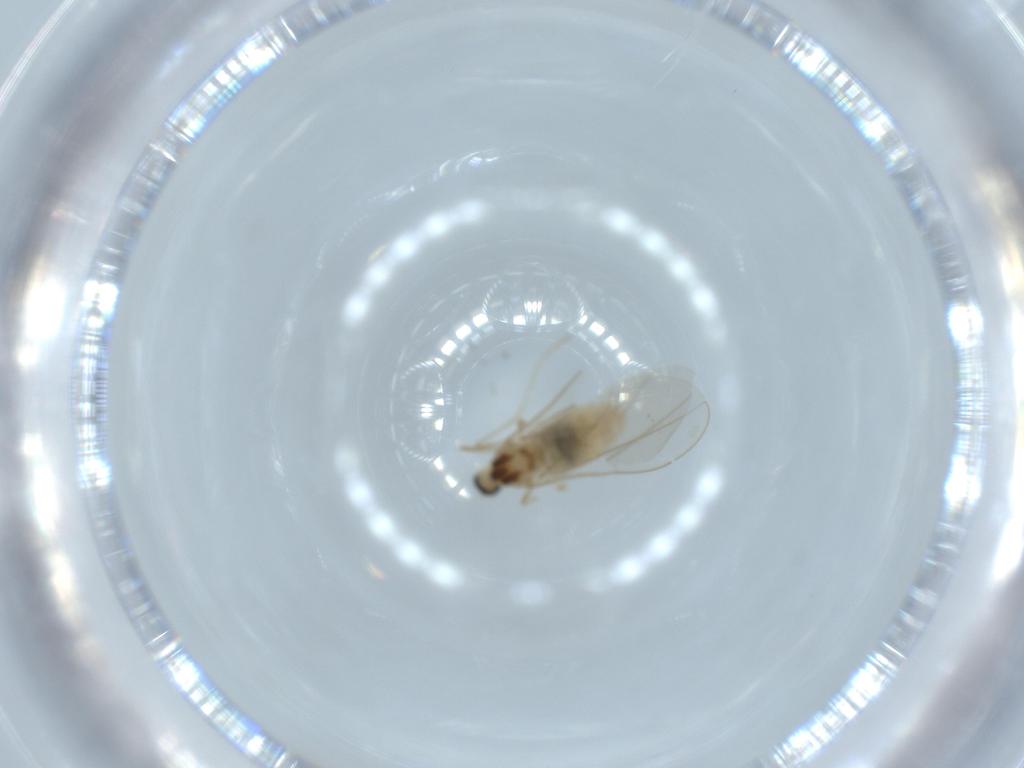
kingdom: Animalia
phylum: Arthropoda
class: Insecta
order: Diptera
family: Cecidomyiidae
